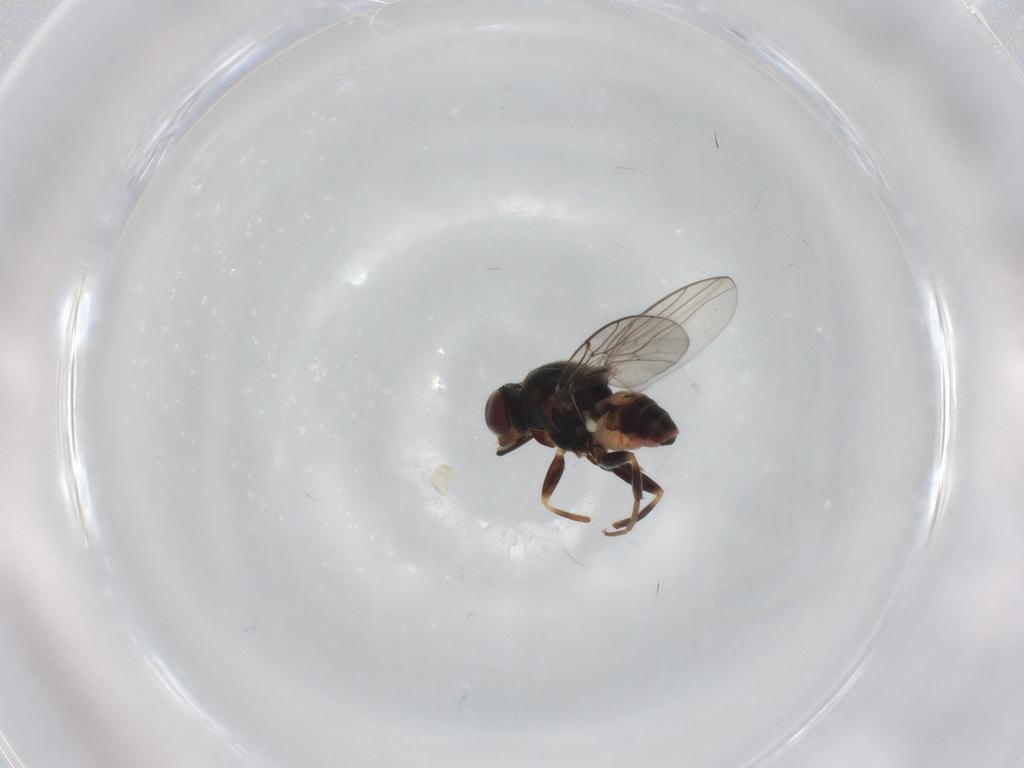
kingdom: Animalia
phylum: Arthropoda
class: Insecta
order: Diptera
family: Chloropidae
